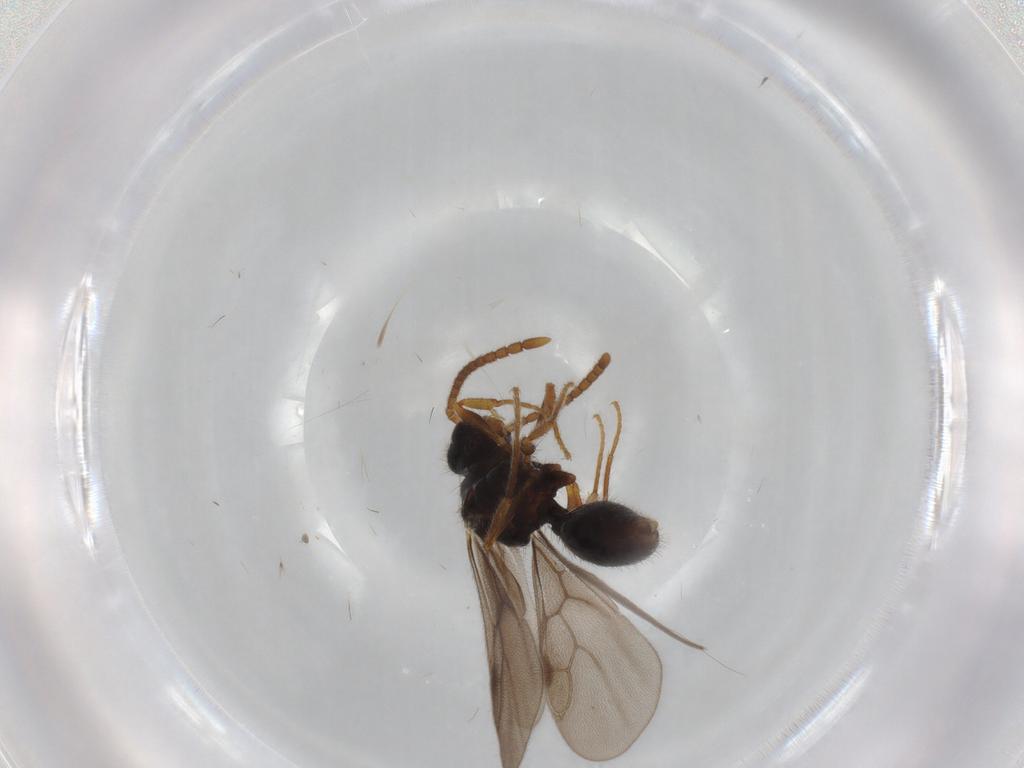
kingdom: Animalia
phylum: Arthropoda
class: Insecta
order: Hymenoptera
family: Formicidae
